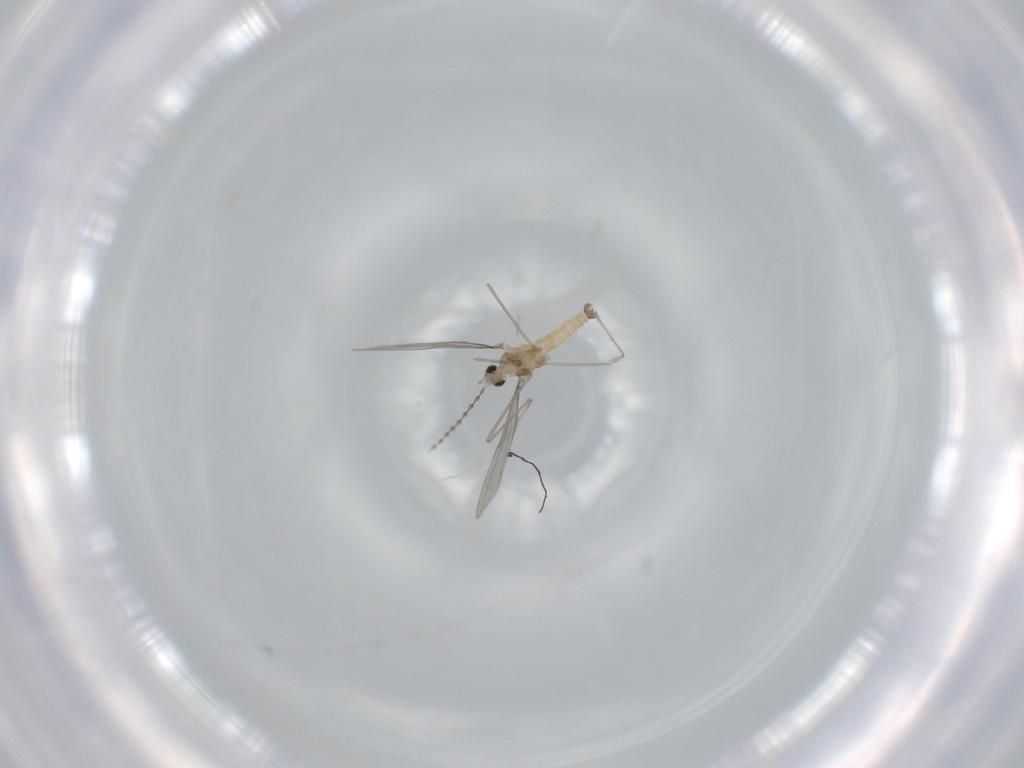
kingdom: Animalia
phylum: Arthropoda
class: Insecta
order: Diptera
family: Cecidomyiidae
